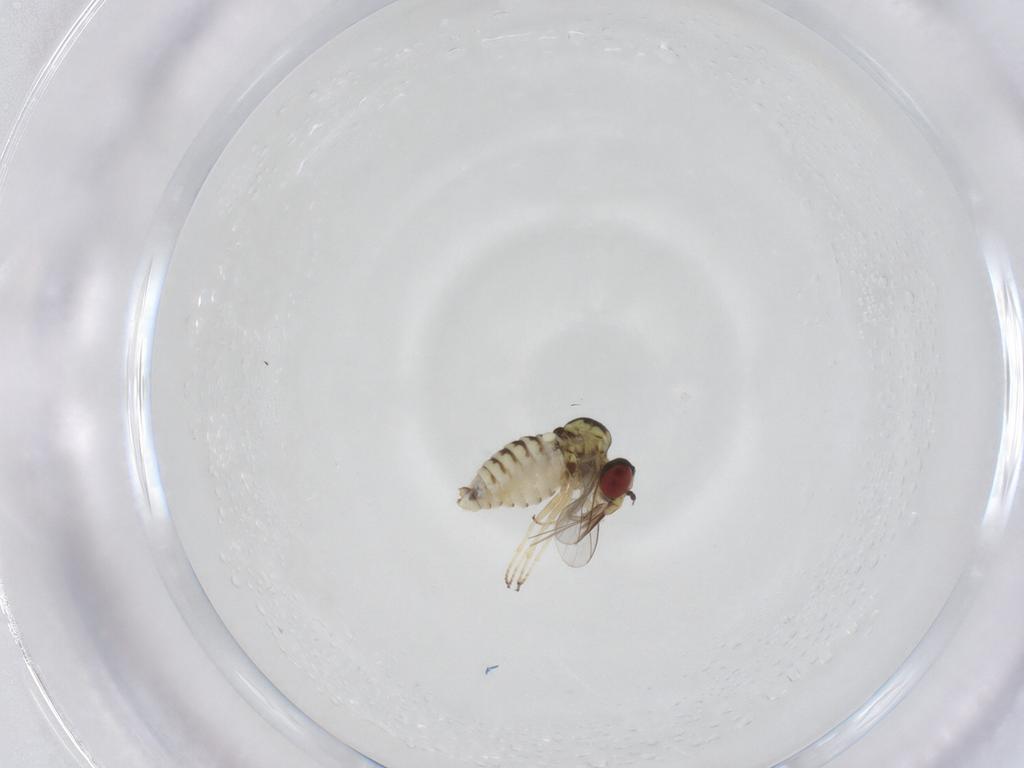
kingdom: Animalia
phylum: Arthropoda
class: Insecta
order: Diptera
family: Bombyliidae
